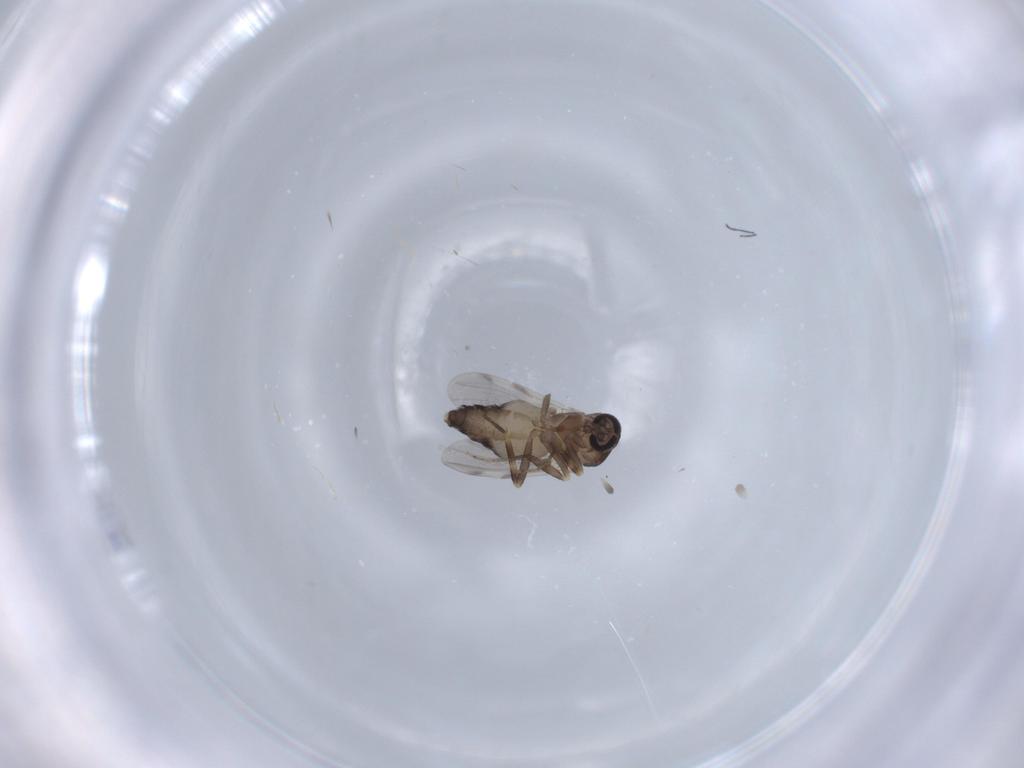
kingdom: Animalia
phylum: Arthropoda
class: Insecta
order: Diptera
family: Ceratopogonidae
